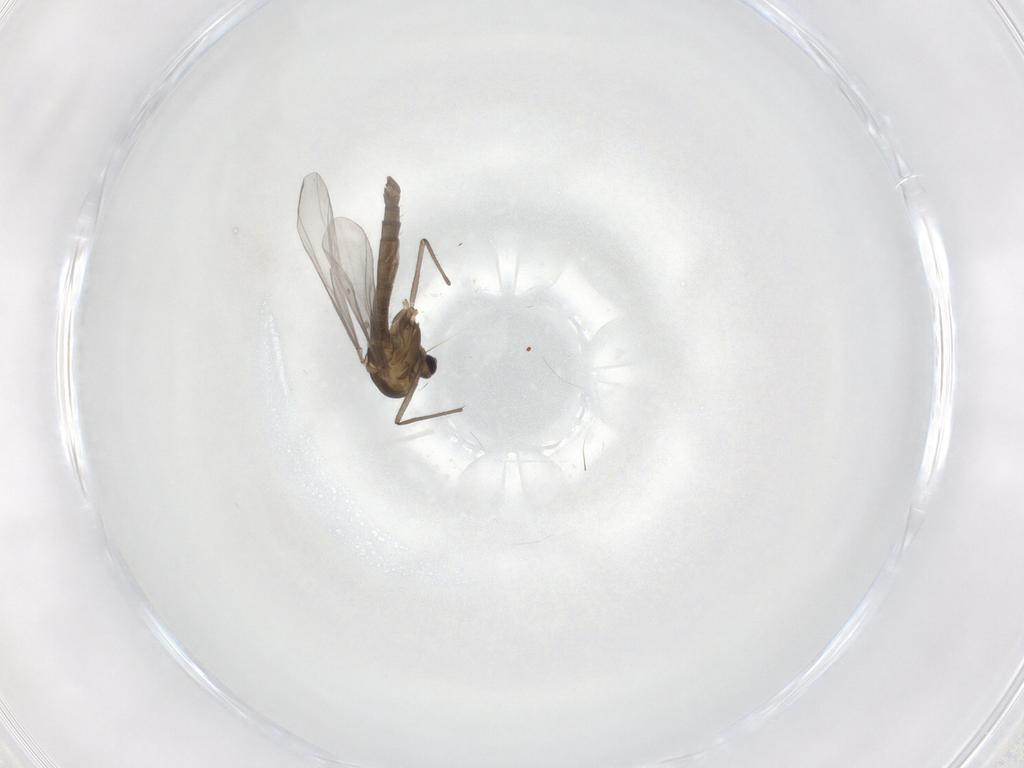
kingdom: Animalia
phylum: Arthropoda
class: Insecta
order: Diptera
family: Chironomidae
